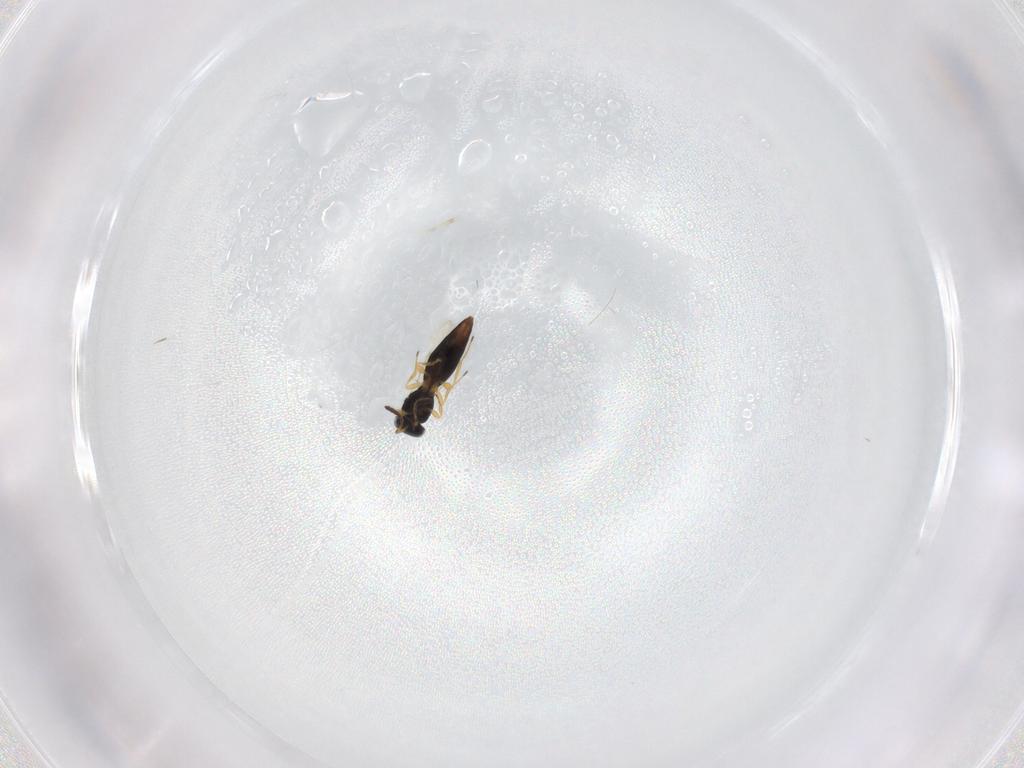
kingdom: Animalia
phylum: Arthropoda
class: Insecta
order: Hymenoptera
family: Scelionidae
